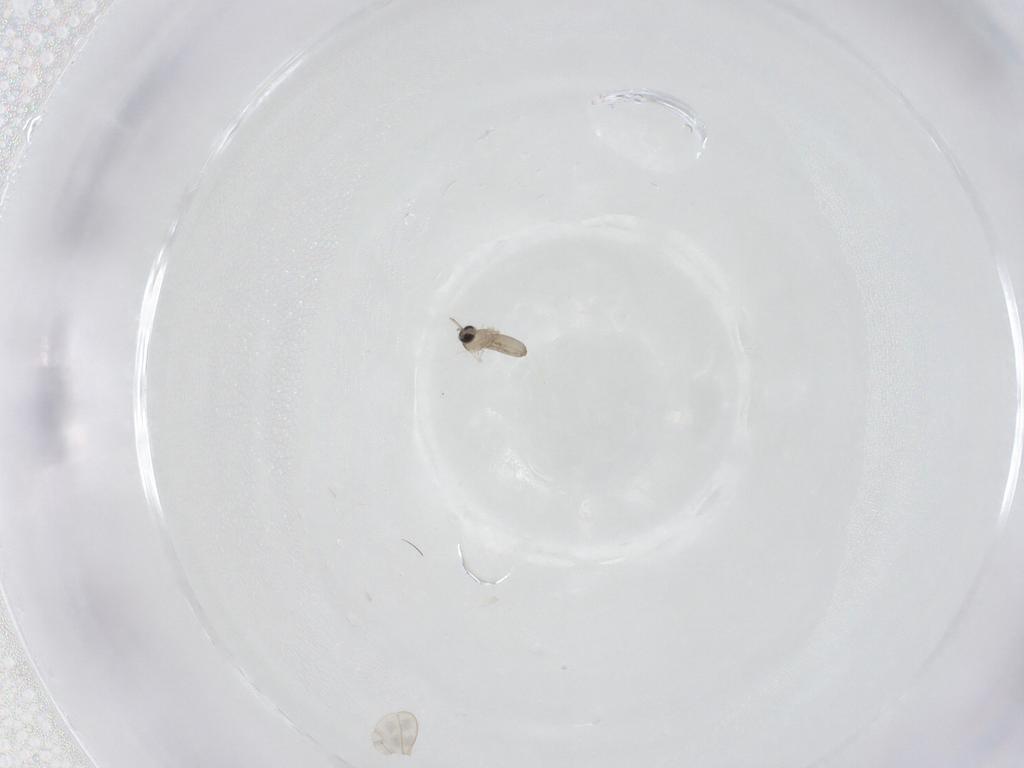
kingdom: Animalia
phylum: Arthropoda
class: Insecta
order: Diptera
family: Cecidomyiidae
